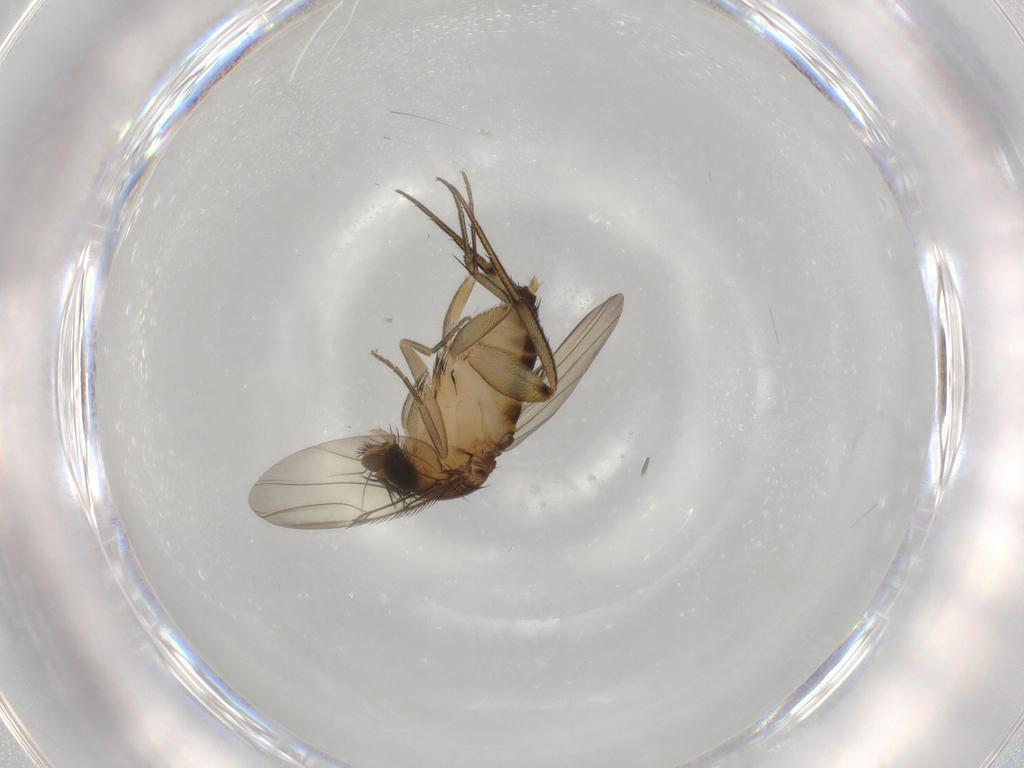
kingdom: Animalia
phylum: Arthropoda
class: Insecta
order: Diptera
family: Phoridae
